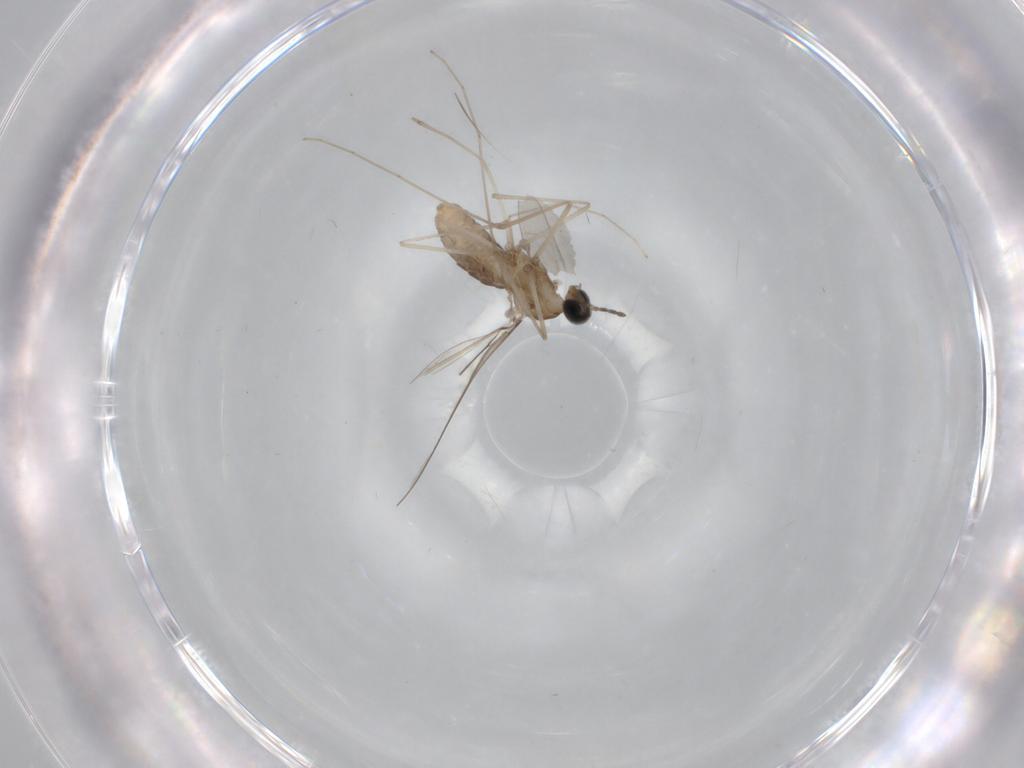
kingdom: Animalia
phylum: Arthropoda
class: Insecta
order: Diptera
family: Cecidomyiidae
